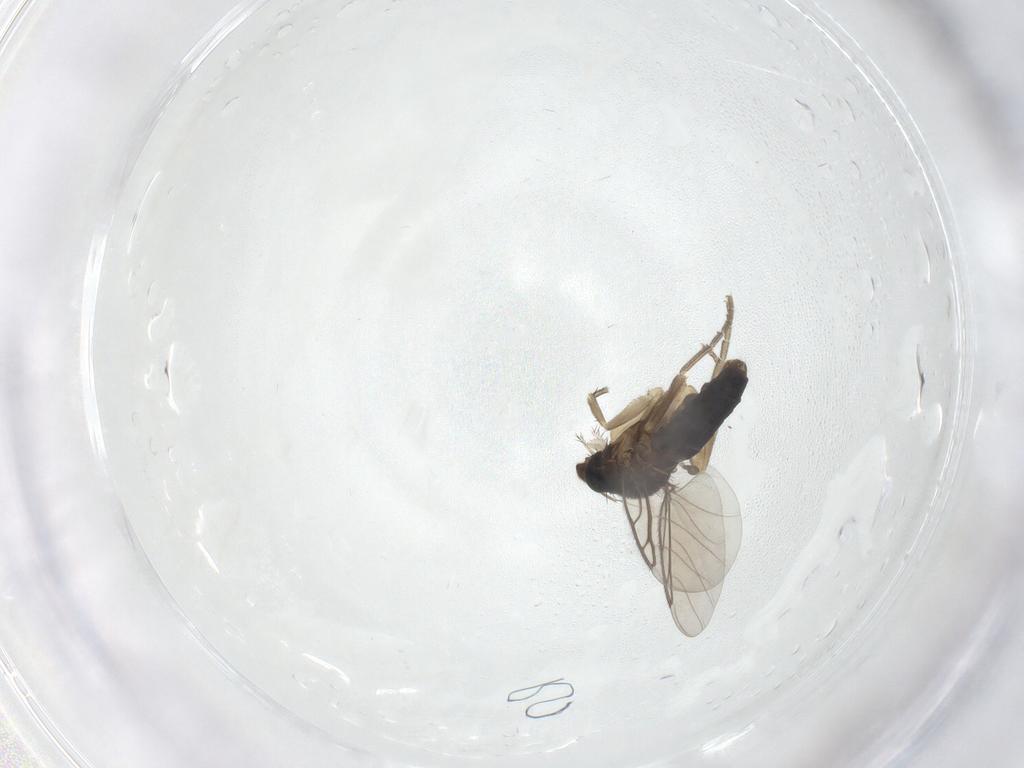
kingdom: Animalia
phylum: Arthropoda
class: Insecta
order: Diptera
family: Phoridae
